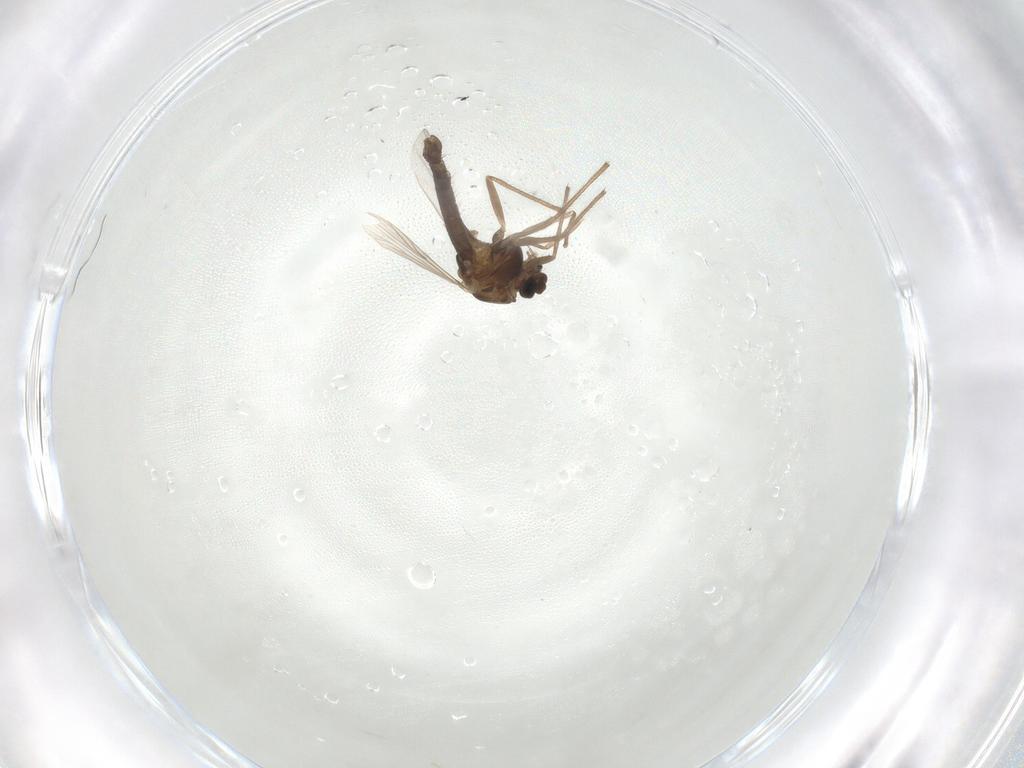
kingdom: Animalia
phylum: Arthropoda
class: Insecta
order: Diptera
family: Chironomidae
